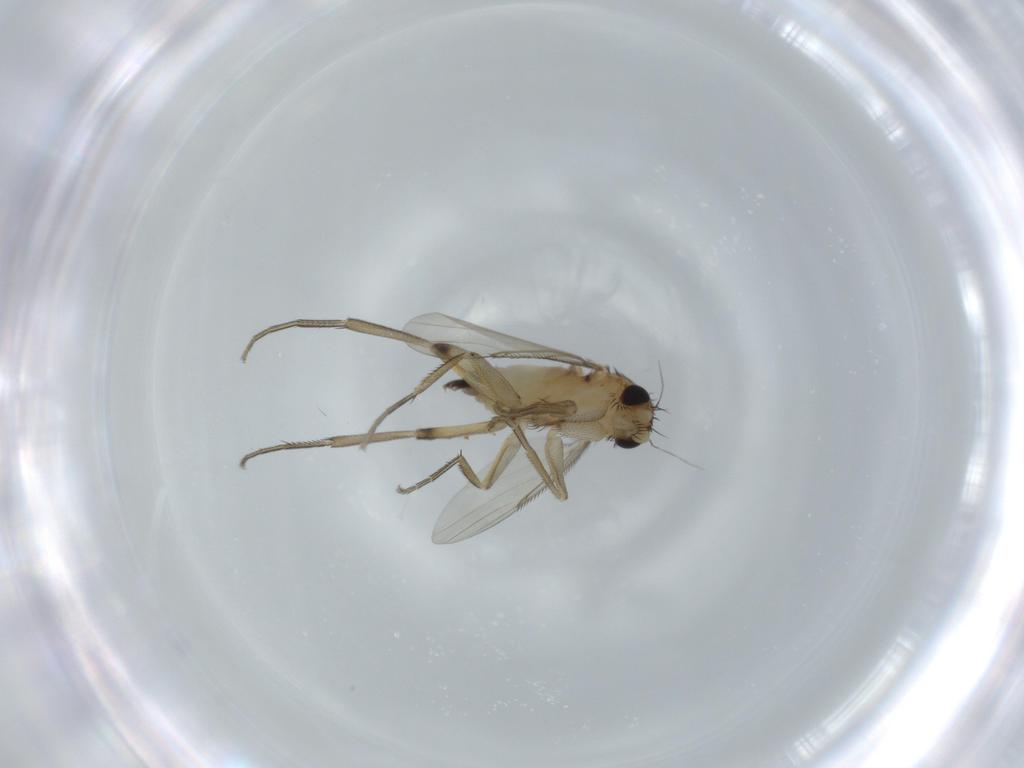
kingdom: Animalia
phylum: Arthropoda
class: Insecta
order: Diptera
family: Phoridae
